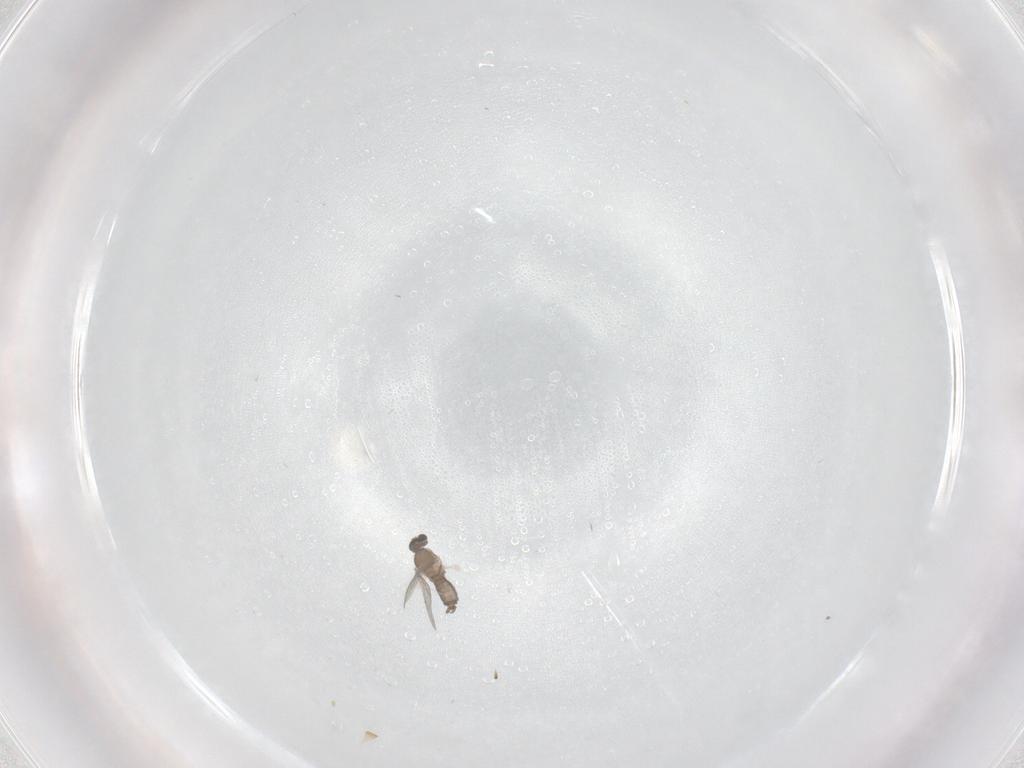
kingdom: Animalia
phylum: Arthropoda
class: Insecta
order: Diptera
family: Cecidomyiidae
